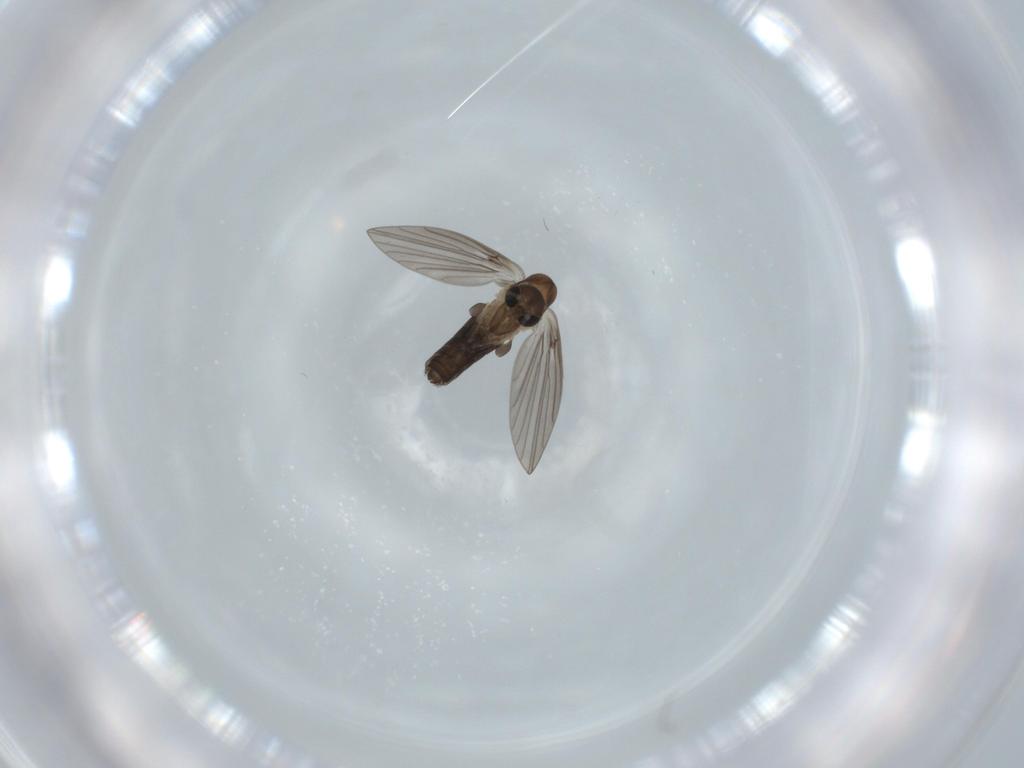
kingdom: Animalia
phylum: Arthropoda
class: Insecta
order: Diptera
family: Psychodidae
